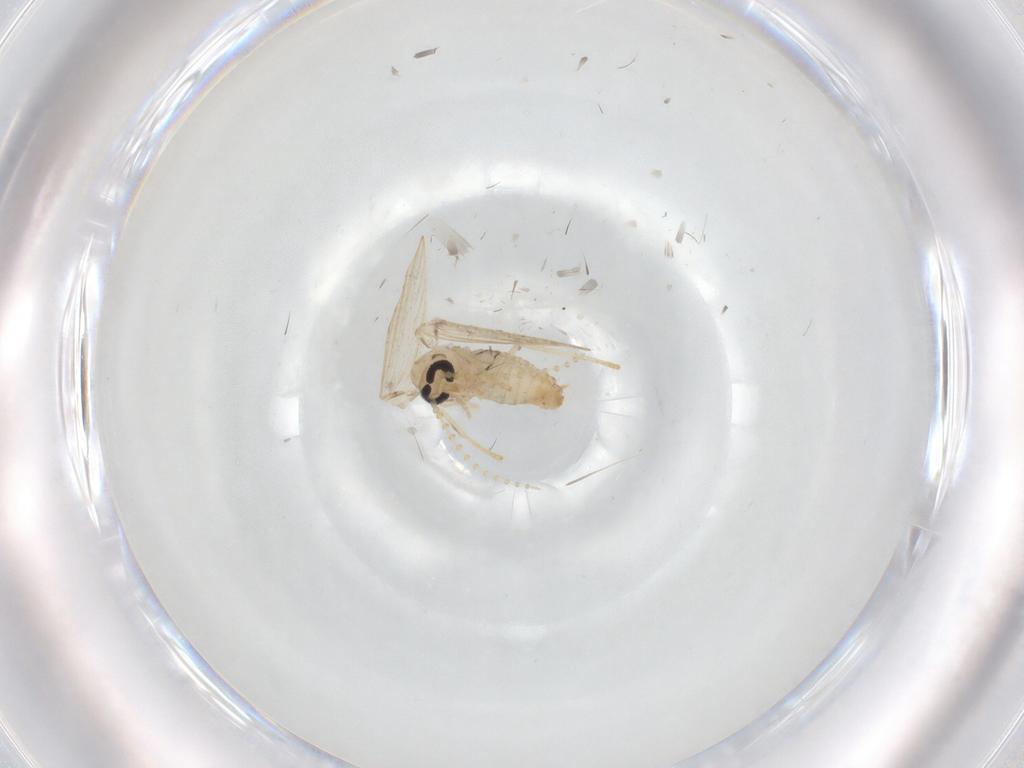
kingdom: Animalia
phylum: Arthropoda
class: Insecta
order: Diptera
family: Psychodidae
